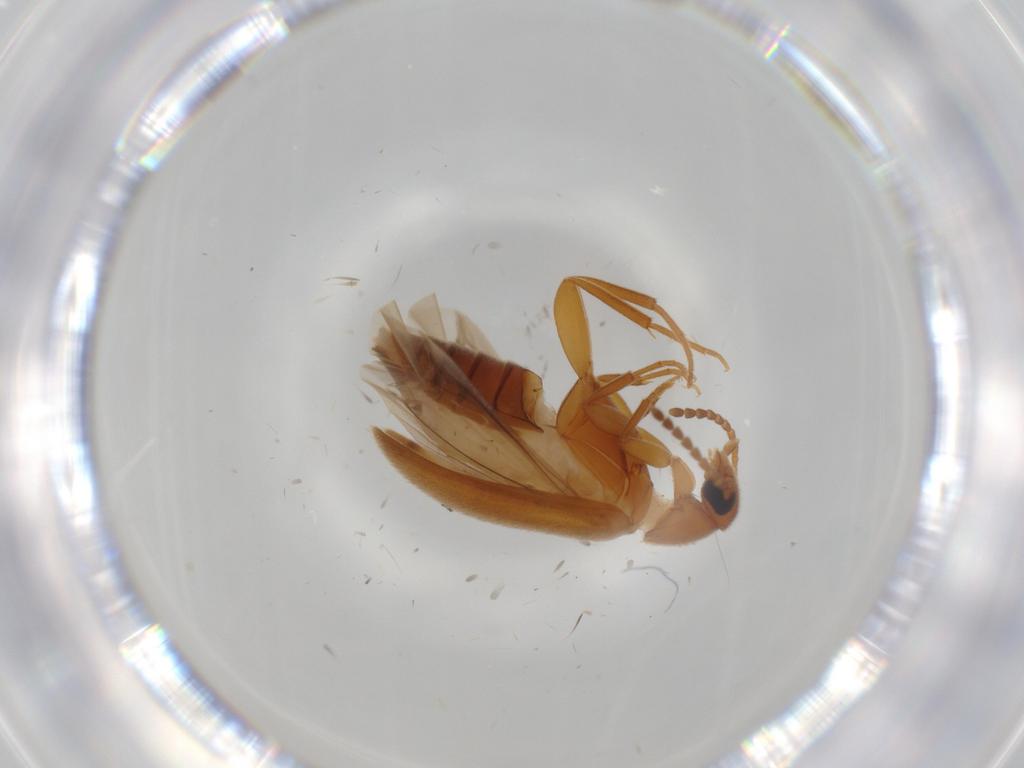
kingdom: Animalia
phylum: Arthropoda
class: Insecta
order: Coleoptera
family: Scraptiidae
